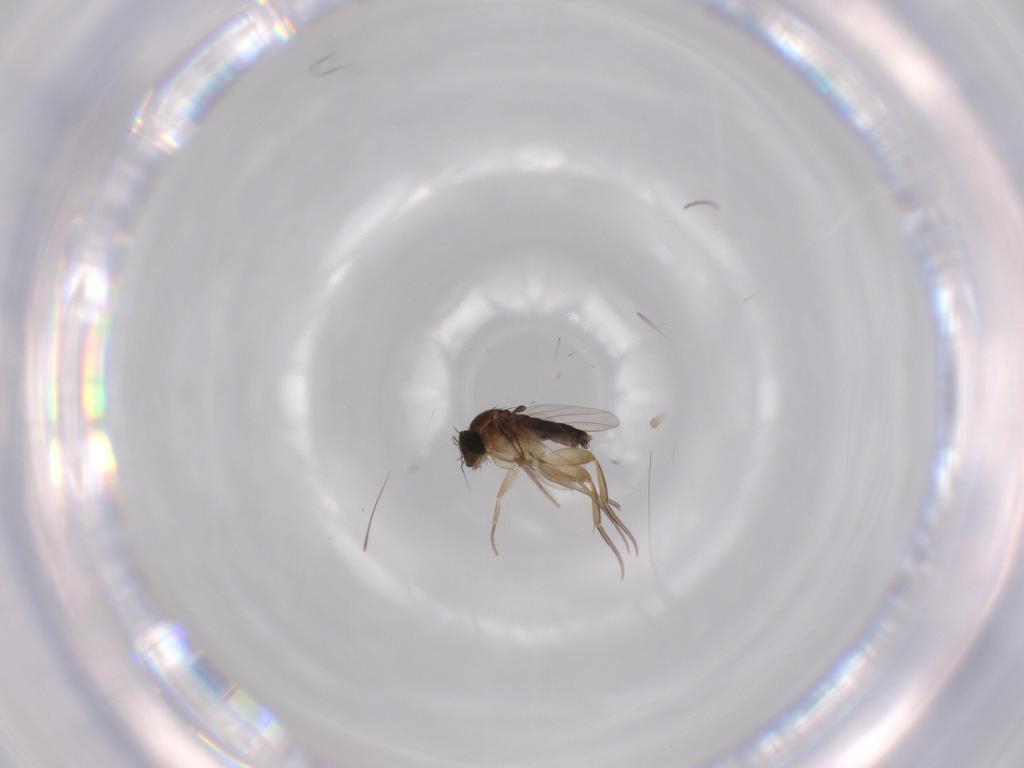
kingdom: Animalia
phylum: Arthropoda
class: Insecta
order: Diptera
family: Phoridae
